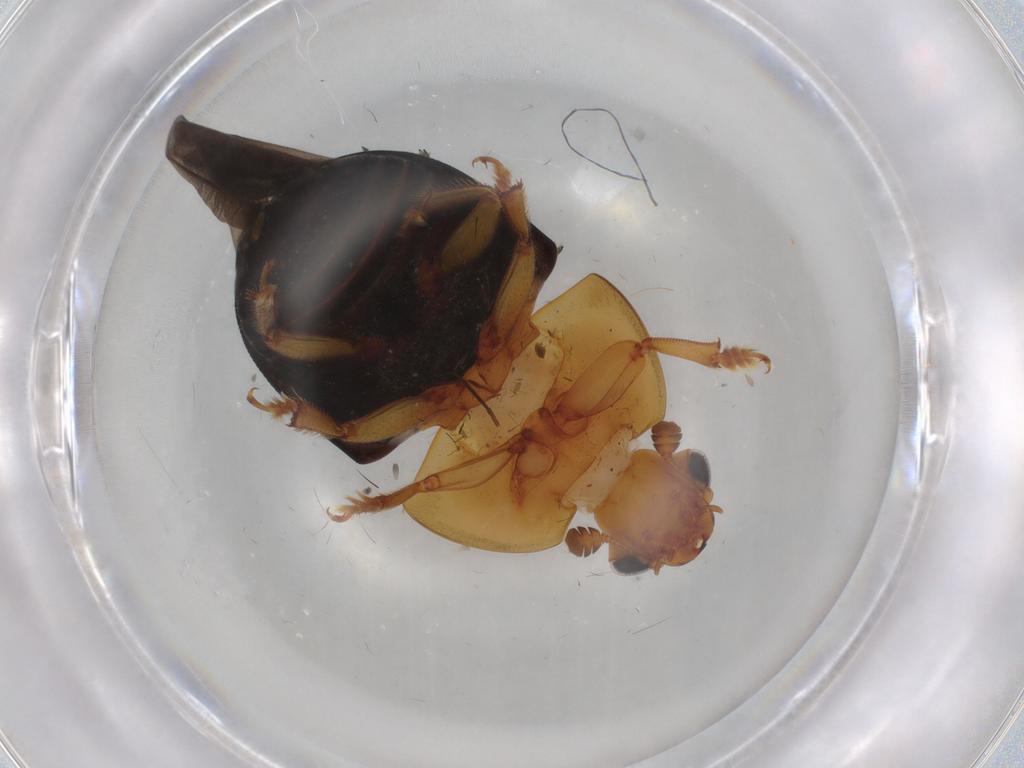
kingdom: Animalia
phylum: Arthropoda
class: Insecta
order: Coleoptera
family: Nitidulidae
